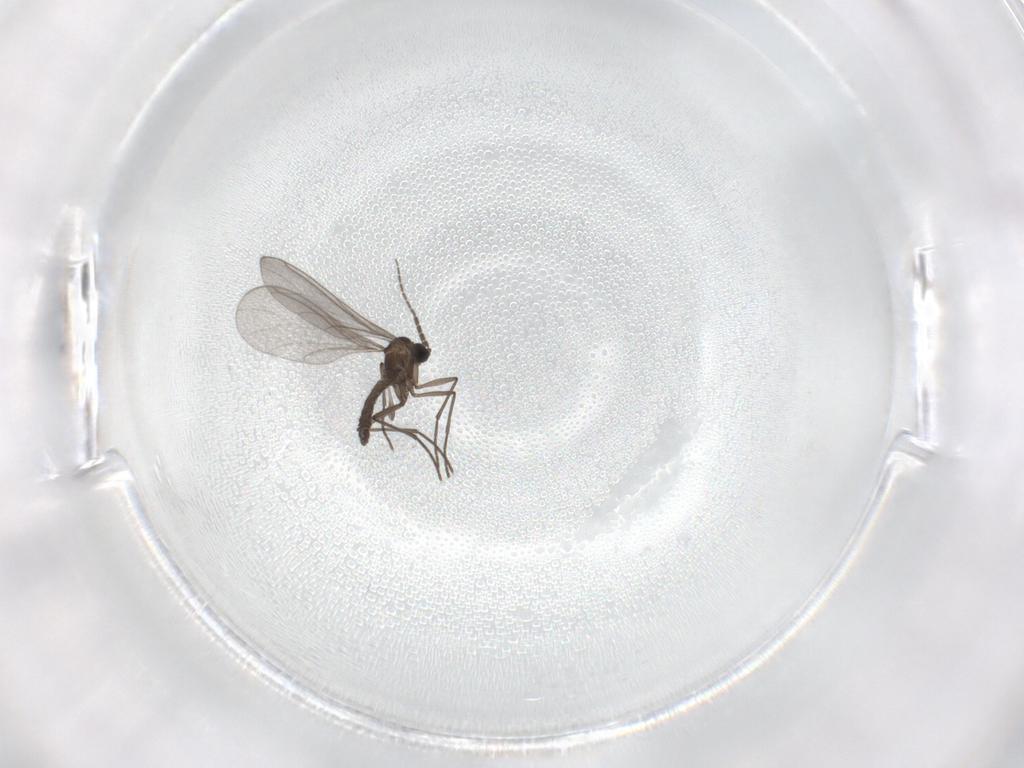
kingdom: Animalia
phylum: Arthropoda
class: Insecta
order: Diptera
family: Sciaridae
